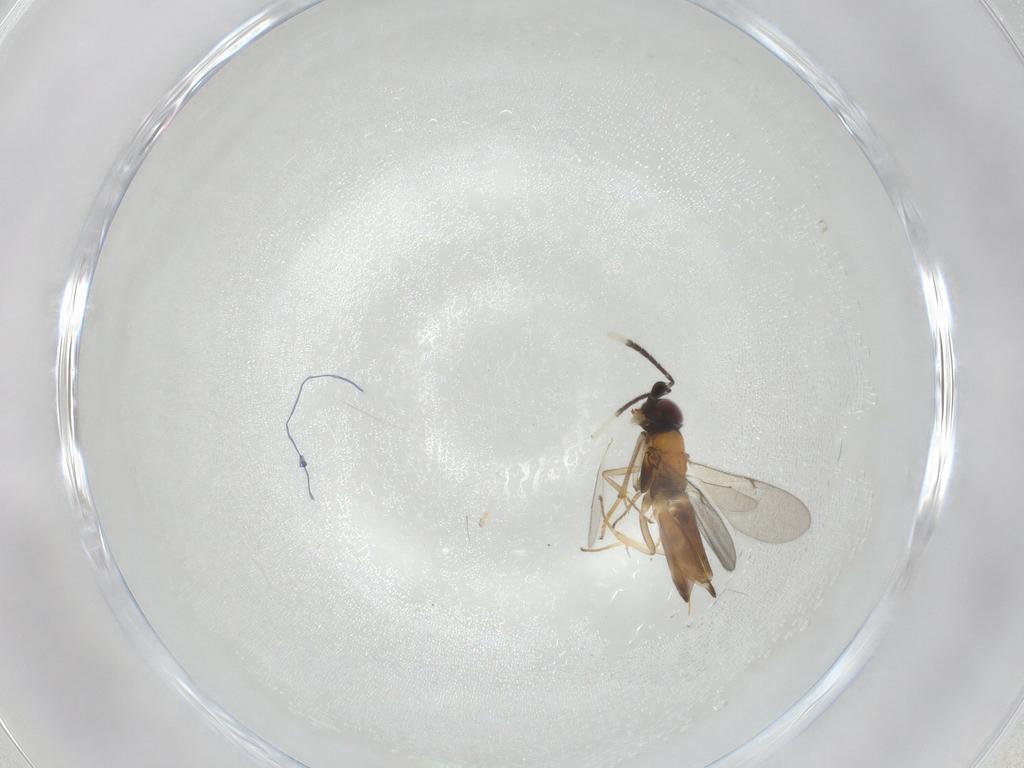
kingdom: Animalia
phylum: Arthropoda
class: Insecta
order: Hymenoptera
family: Encyrtidae
